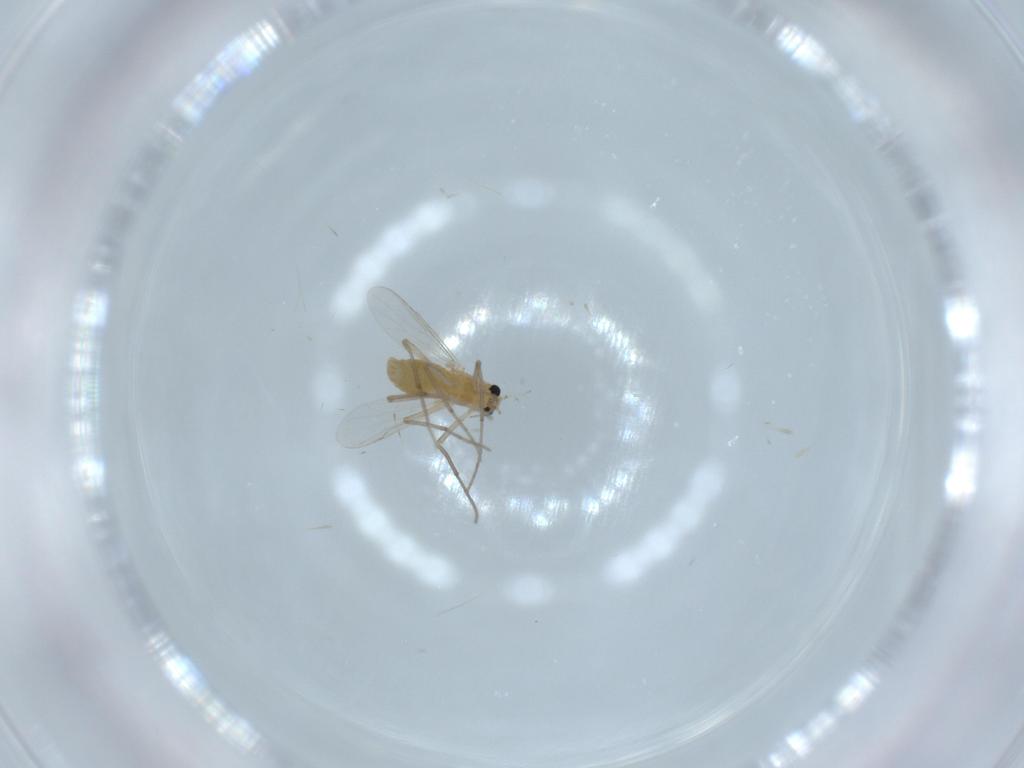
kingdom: Animalia
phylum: Arthropoda
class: Insecta
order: Diptera
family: Chironomidae
